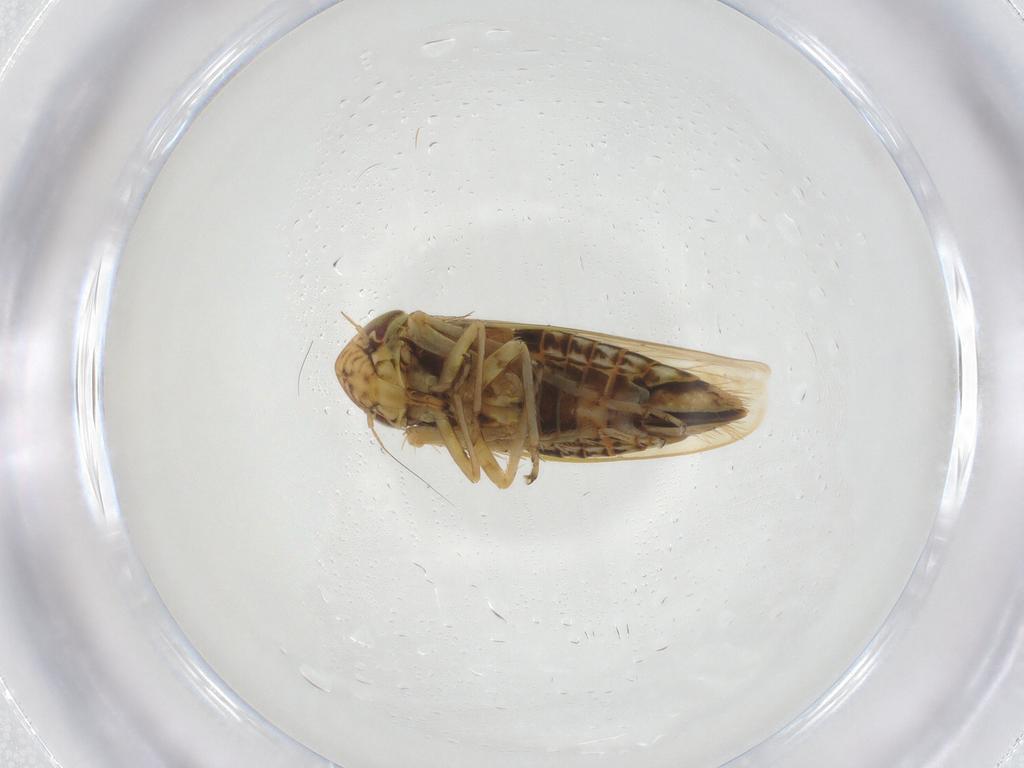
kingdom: Animalia
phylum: Arthropoda
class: Insecta
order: Hemiptera
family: Cicadellidae
